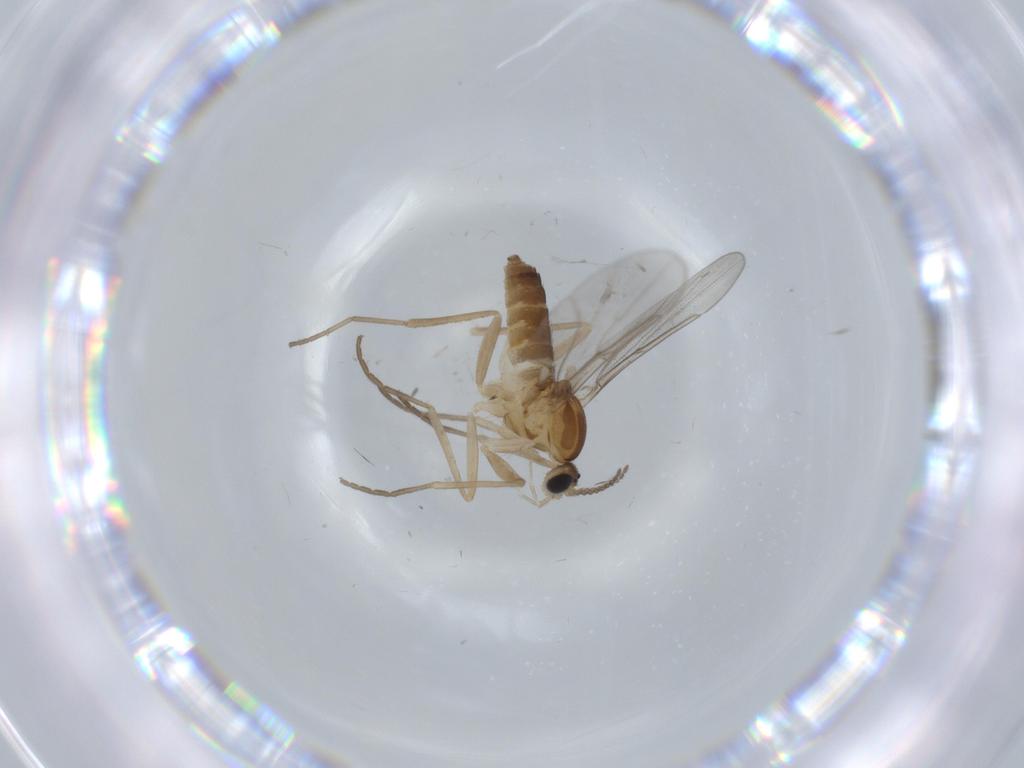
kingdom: Animalia
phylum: Arthropoda
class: Insecta
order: Diptera
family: Cecidomyiidae
